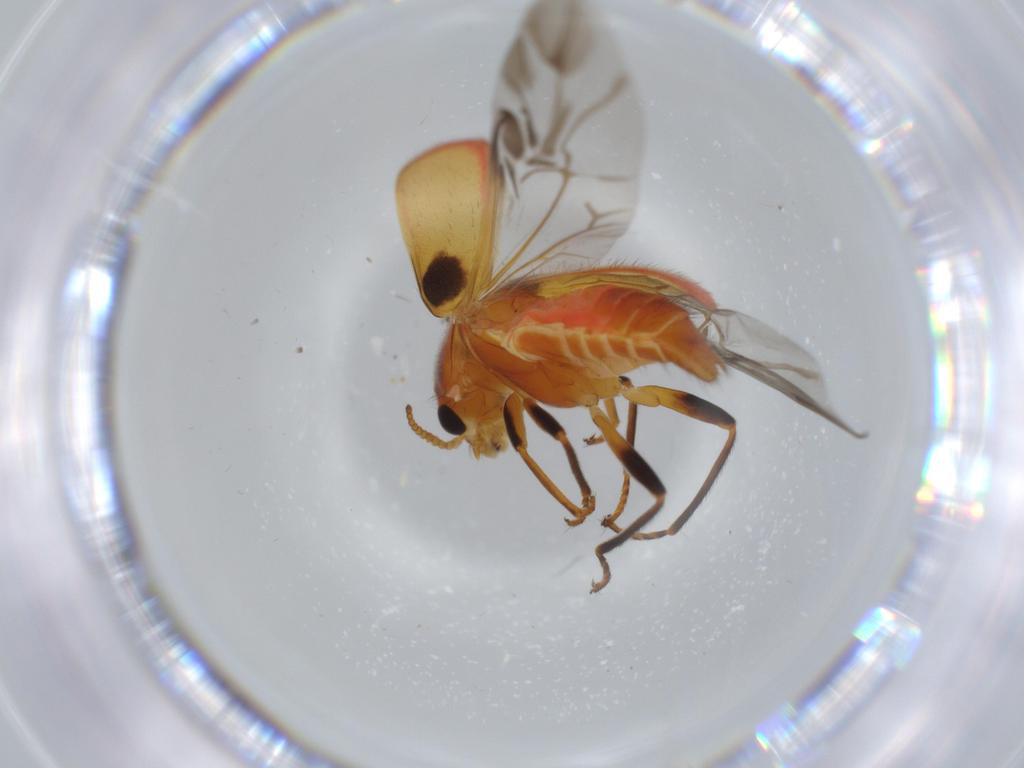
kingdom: Animalia
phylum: Arthropoda
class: Insecta
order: Coleoptera
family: Melyridae
